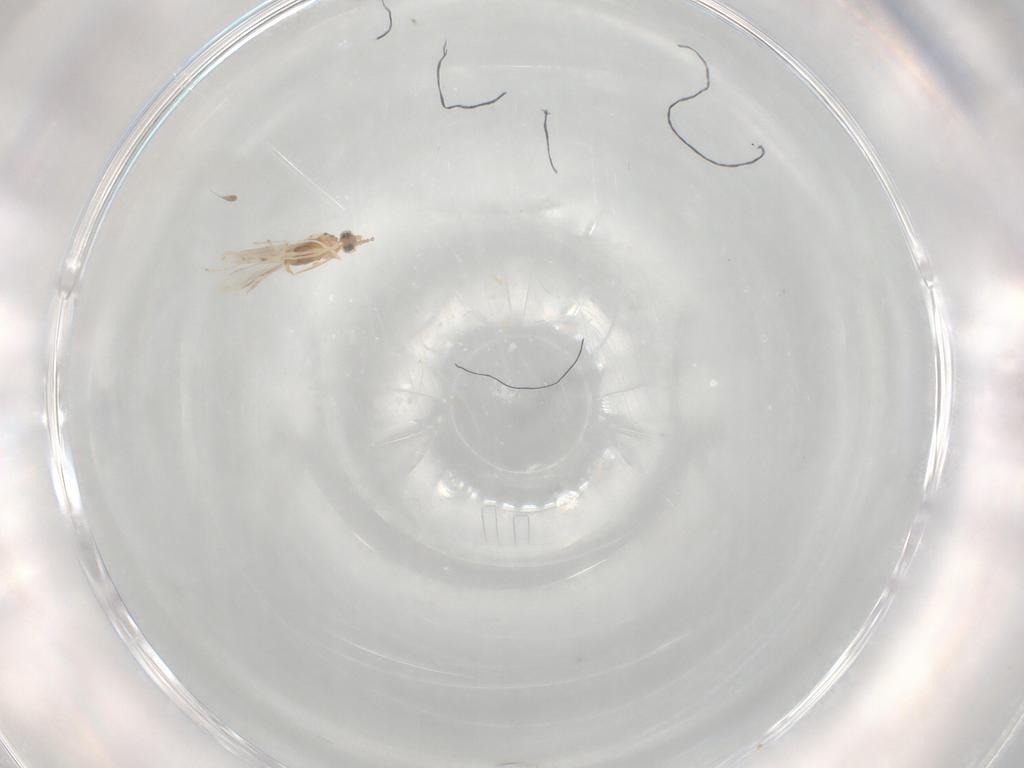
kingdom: Animalia
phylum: Arthropoda
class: Insecta
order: Diptera
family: Cecidomyiidae
